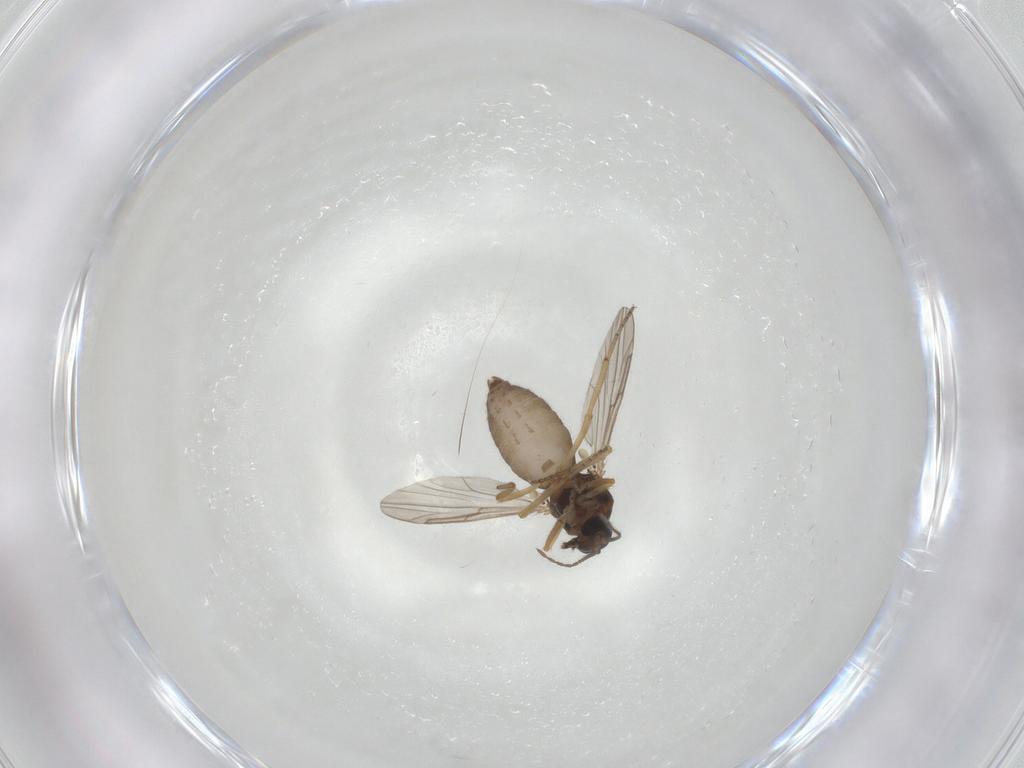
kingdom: Animalia
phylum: Arthropoda
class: Insecta
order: Diptera
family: Ceratopogonidae
